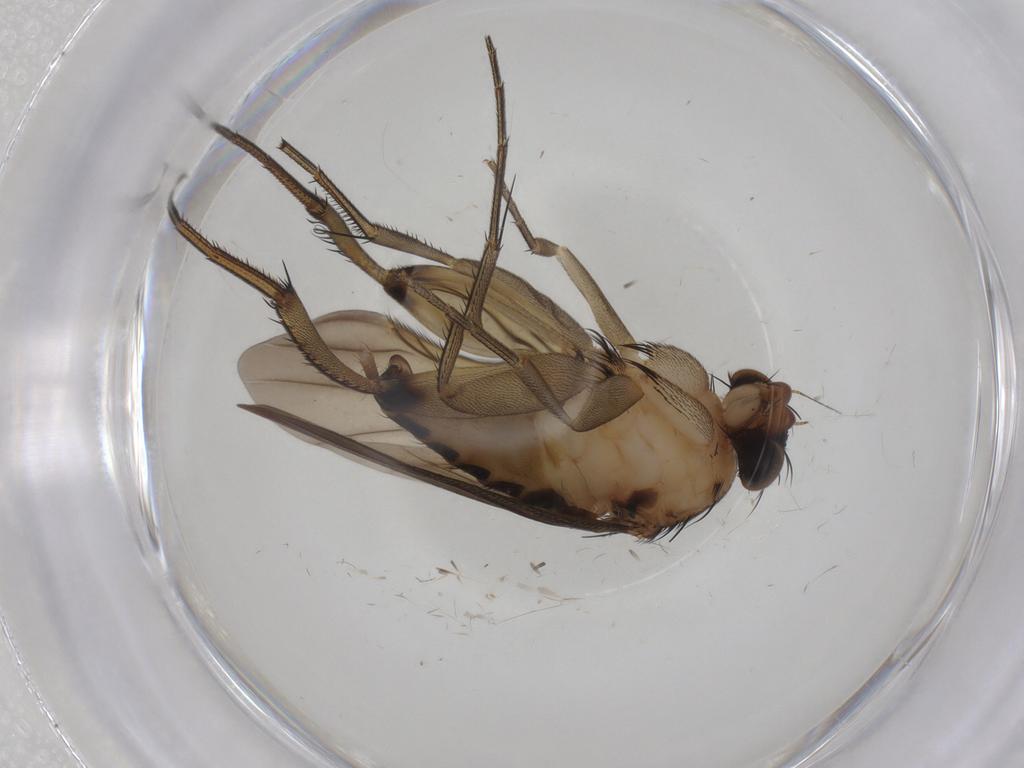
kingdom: Animalia
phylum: Arthropoda
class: Insecta
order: Diptera
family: Phoridae
